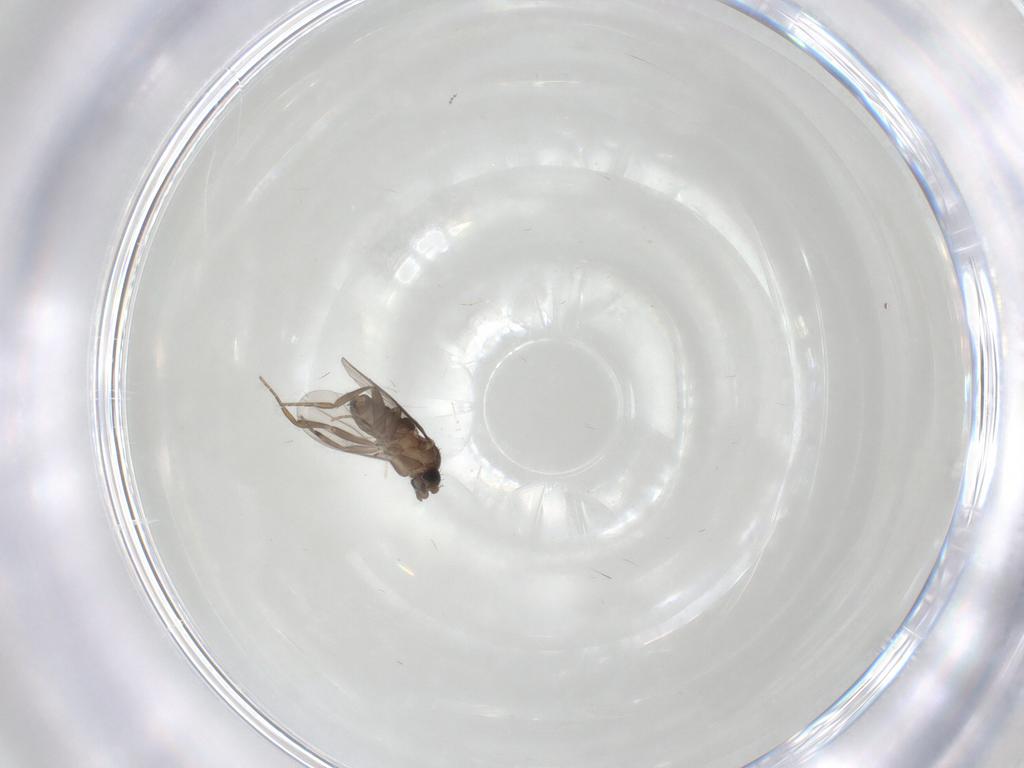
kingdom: Animalia
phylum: Arthropoda
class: Insecta
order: Diptera
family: Phoridae
